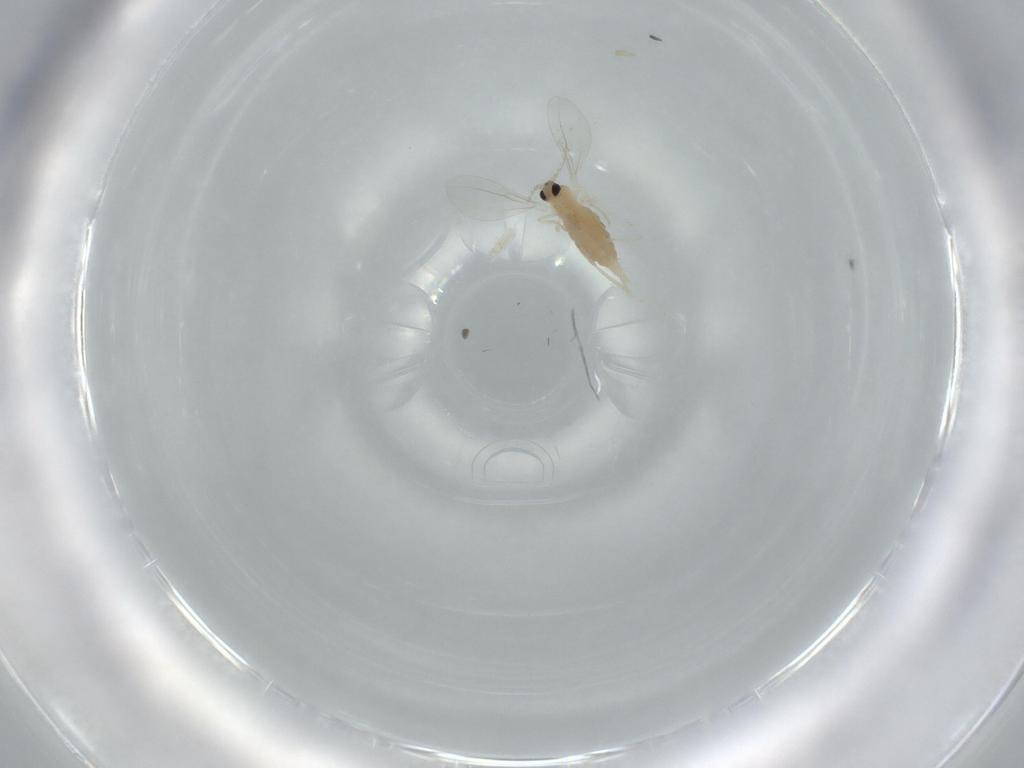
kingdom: Animalia
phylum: Arthropoda
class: Insecta
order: Diptera
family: Cecidomyiidae
